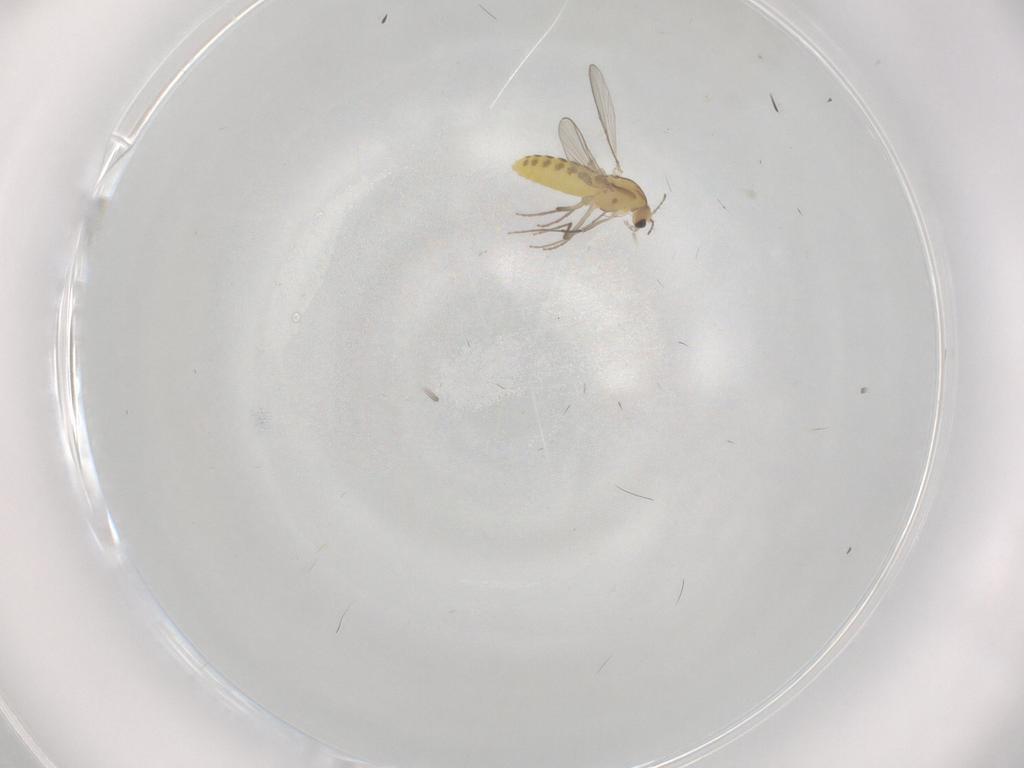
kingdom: Animalia
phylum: Arthropoda
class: Insecta
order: Diptera
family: Chironomidae
